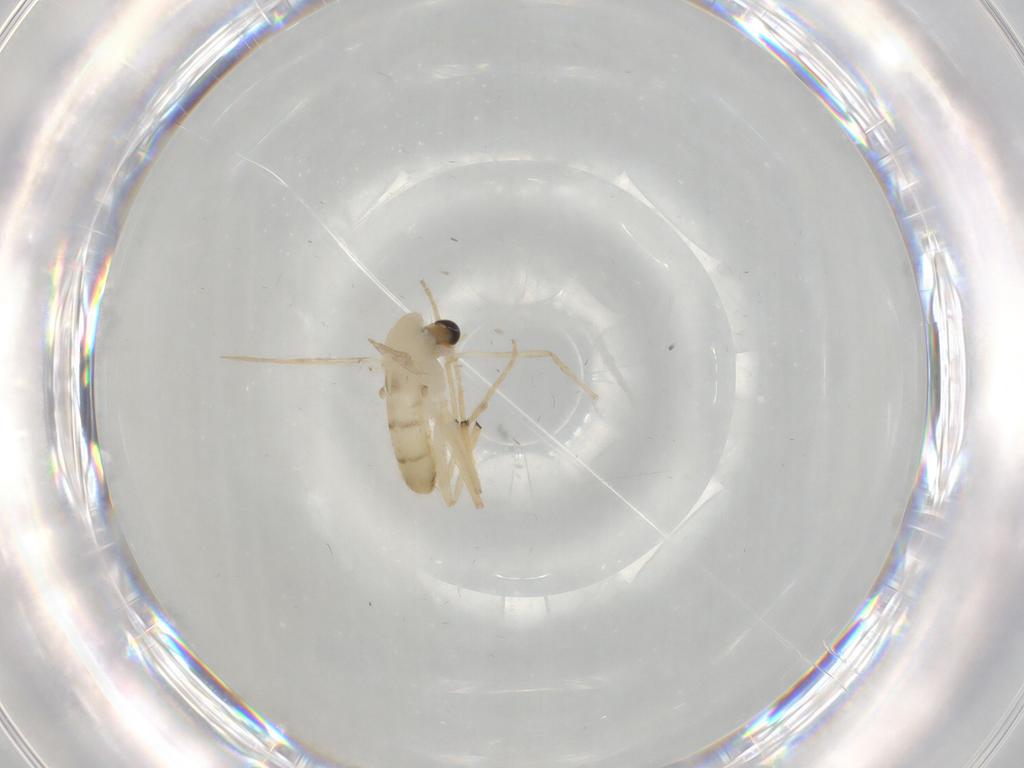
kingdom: Animalia
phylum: Arthropoda
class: Insecta
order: Diptera
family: Chironomidae
